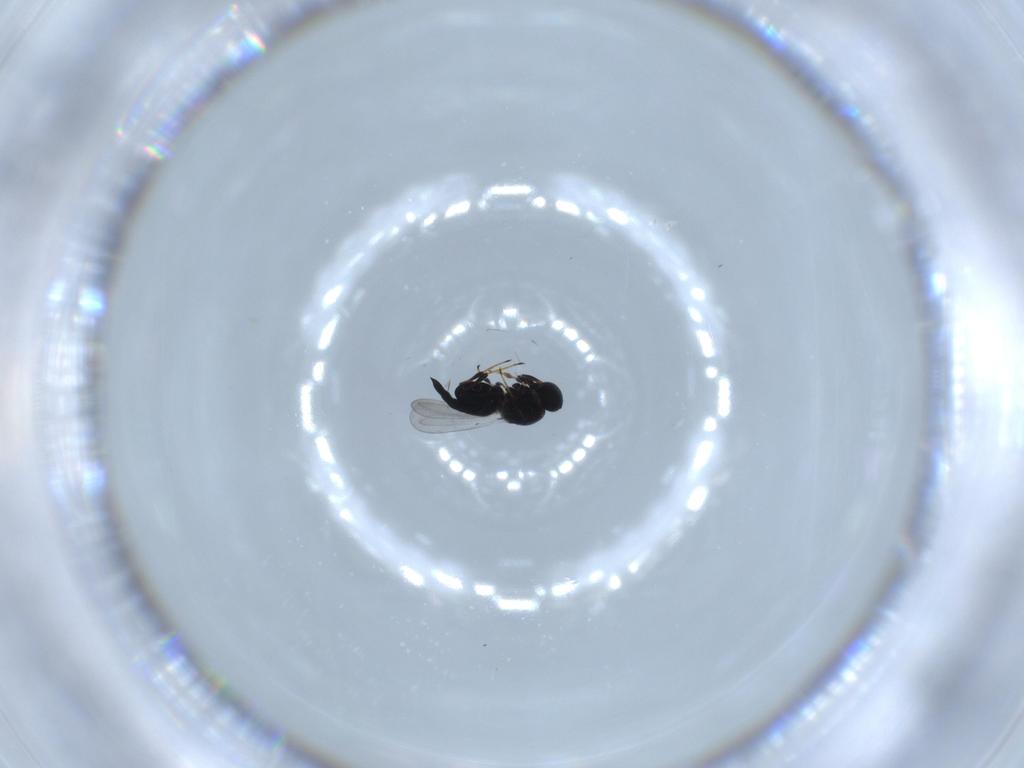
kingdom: Animalia
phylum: Arthropoda
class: Insecta
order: Hymenoptera
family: Platygastridae
